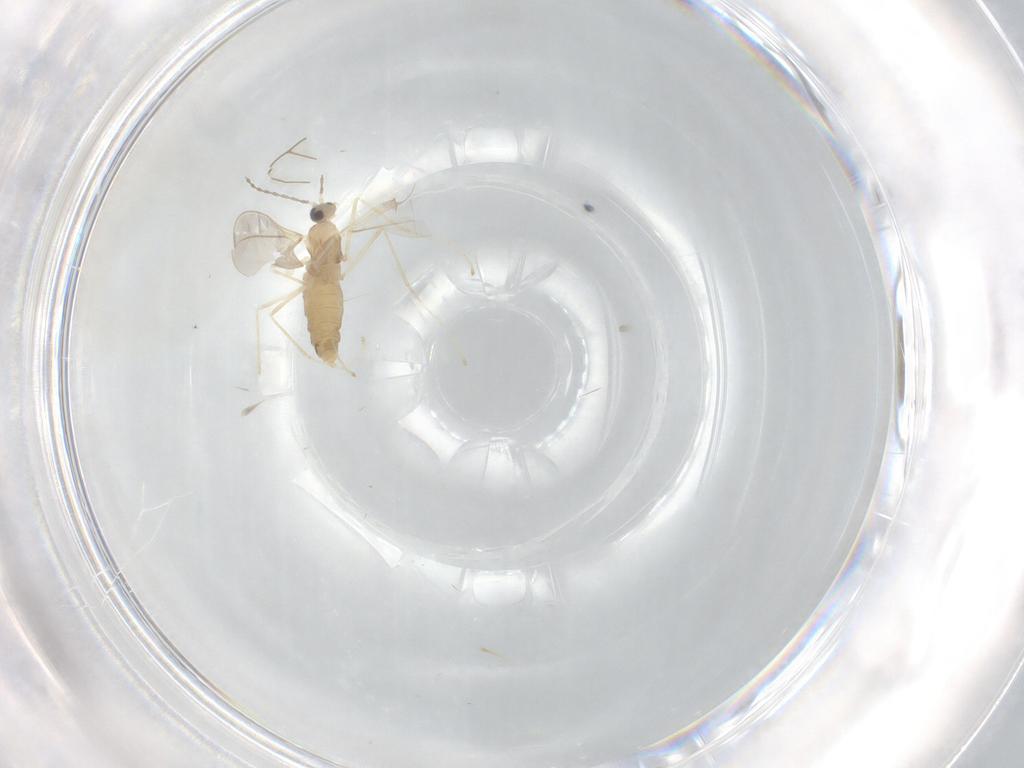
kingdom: Animalia
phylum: Arthropoda
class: Insecta
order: Diptera
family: Cecidomyiidae
